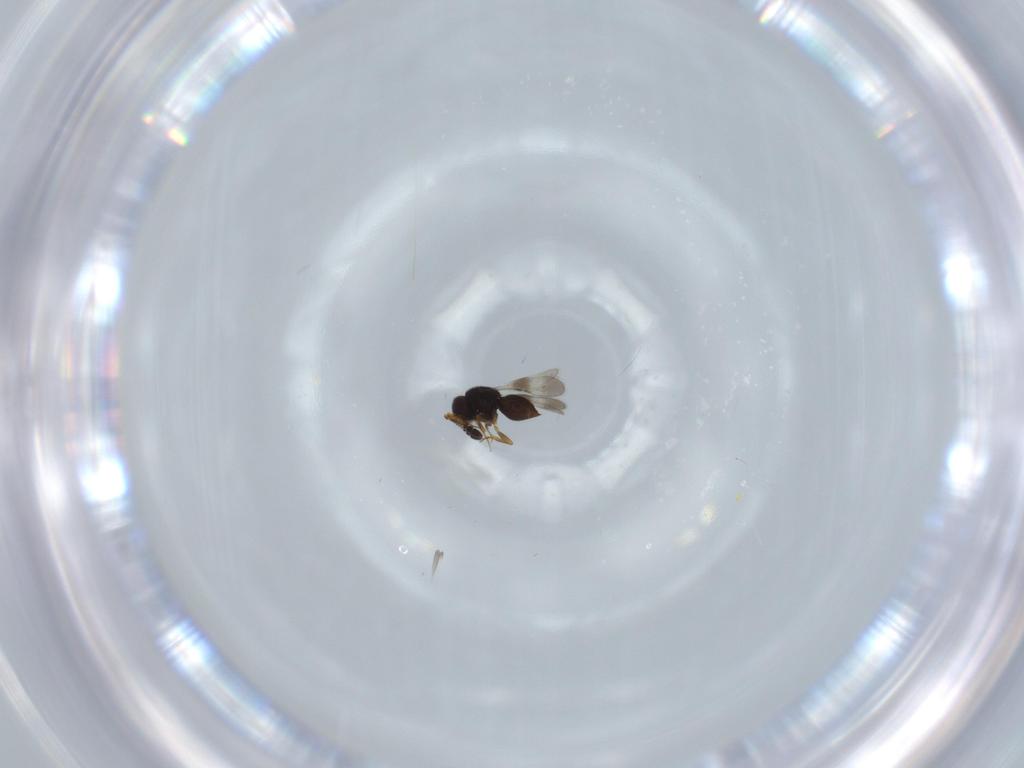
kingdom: Animalia
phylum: Arthropoda
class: Insecta
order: Hymenoptera
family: Ceraphronidae
